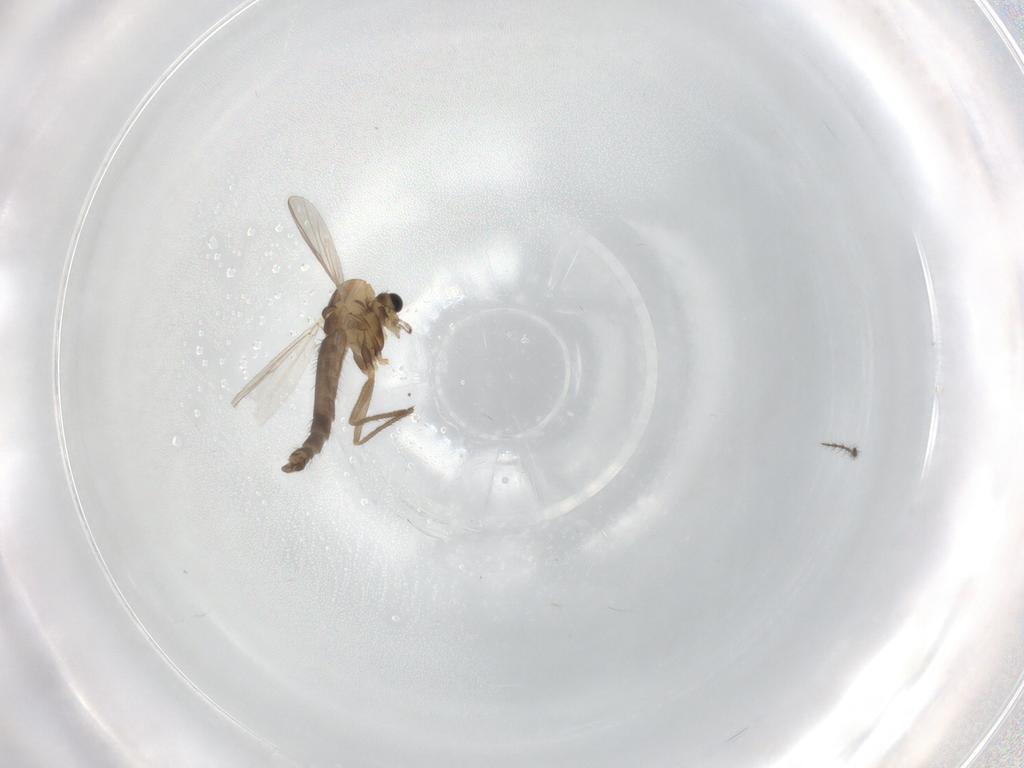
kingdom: Animalia
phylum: Arthropoda
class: Insecta
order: Diptera
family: Chironomidae
